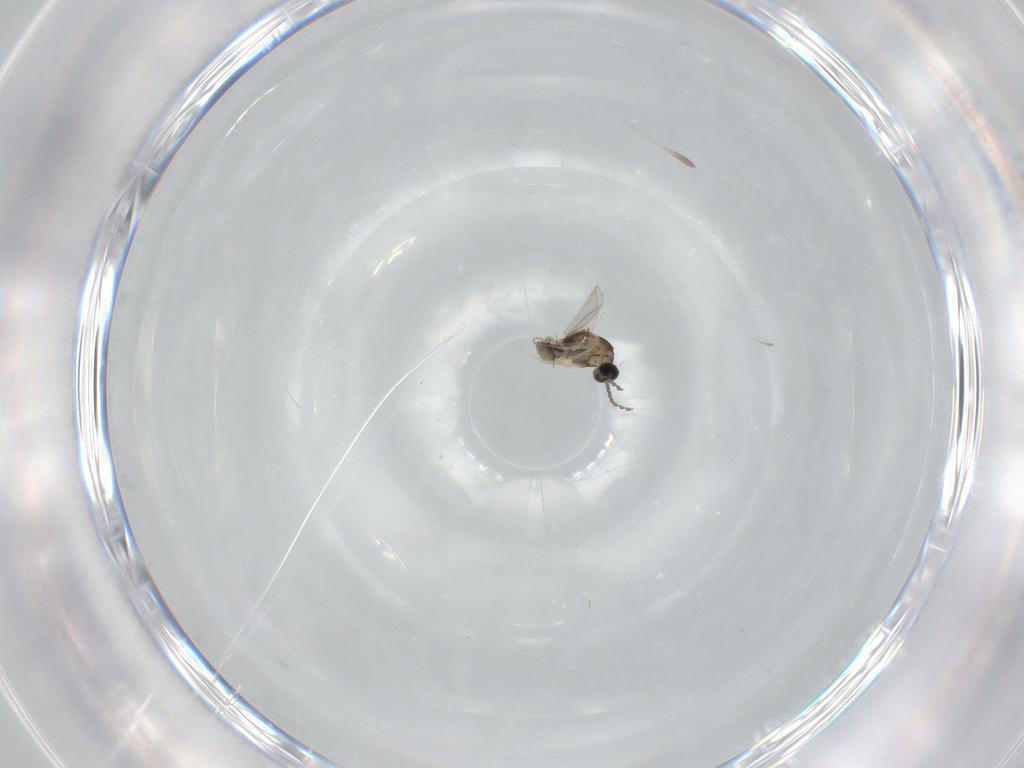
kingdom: Animalia
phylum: Arthropoda
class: Insecta
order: Diptera
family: Cecidomyiidae
